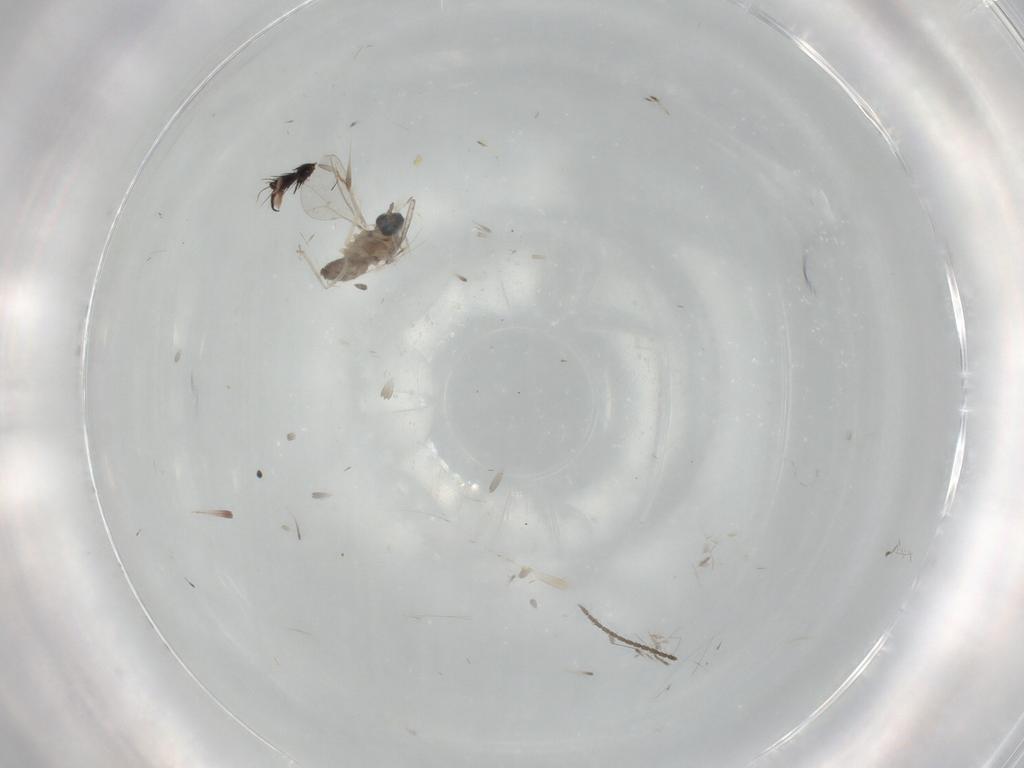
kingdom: Animalia
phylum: Arthropoda
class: Insecta
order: Diptera
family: Cecidomyiidae
